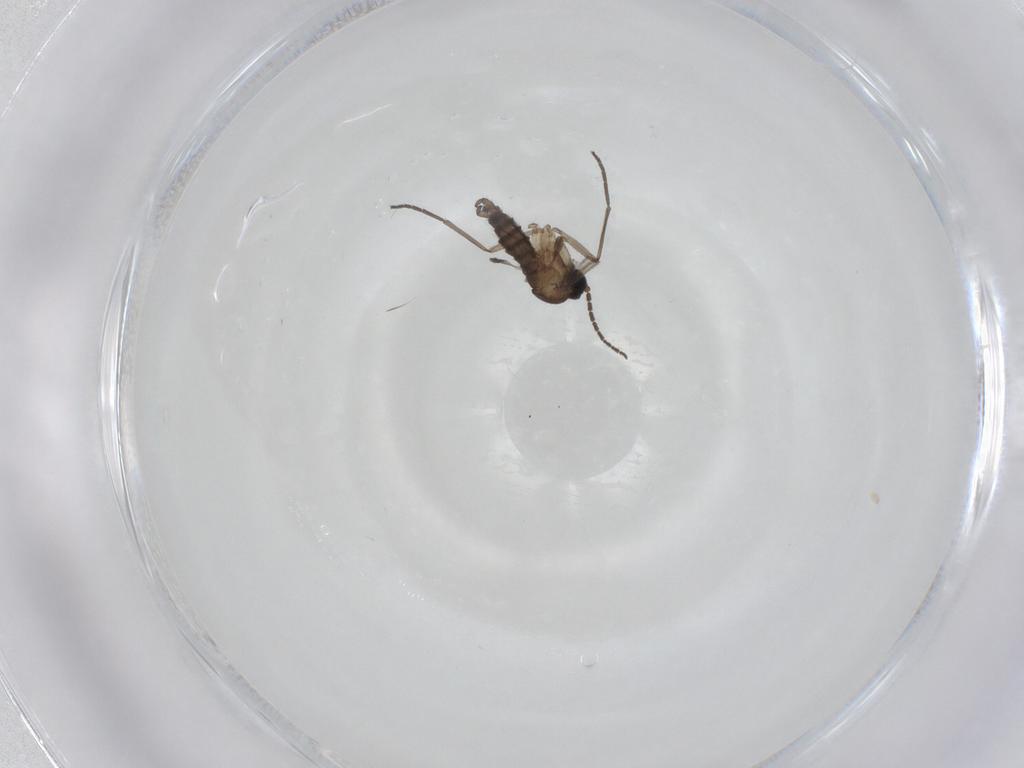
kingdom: Animalia
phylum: Arthropoda
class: Insecta
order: Diptera
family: Sciaridae
